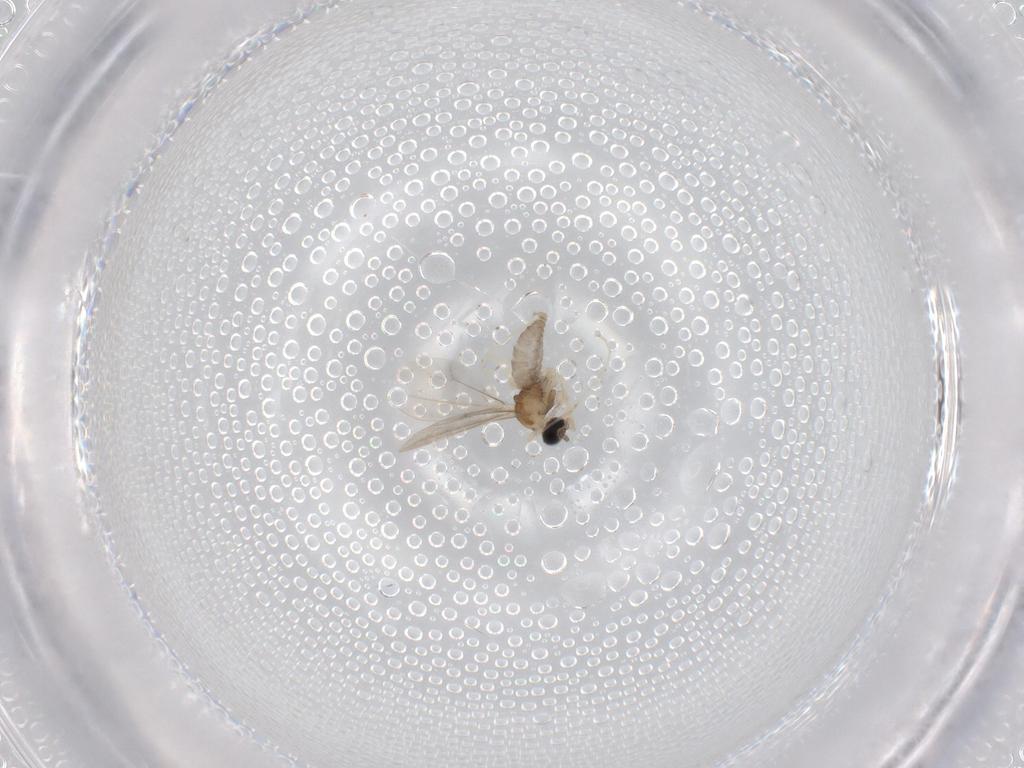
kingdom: Animalia
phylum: Arthropoda
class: Insecta
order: Diptera
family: Cecidomyiidae
